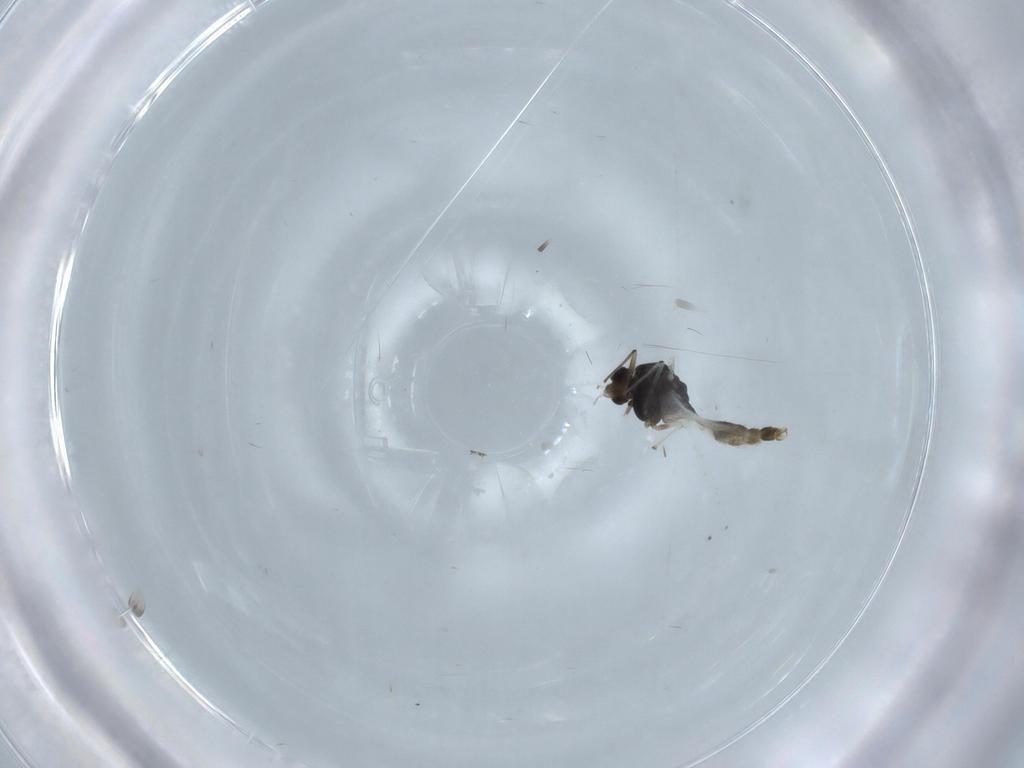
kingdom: Animalia
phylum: Arthropoda
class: Insecta
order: Diptera
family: Chironomidae
